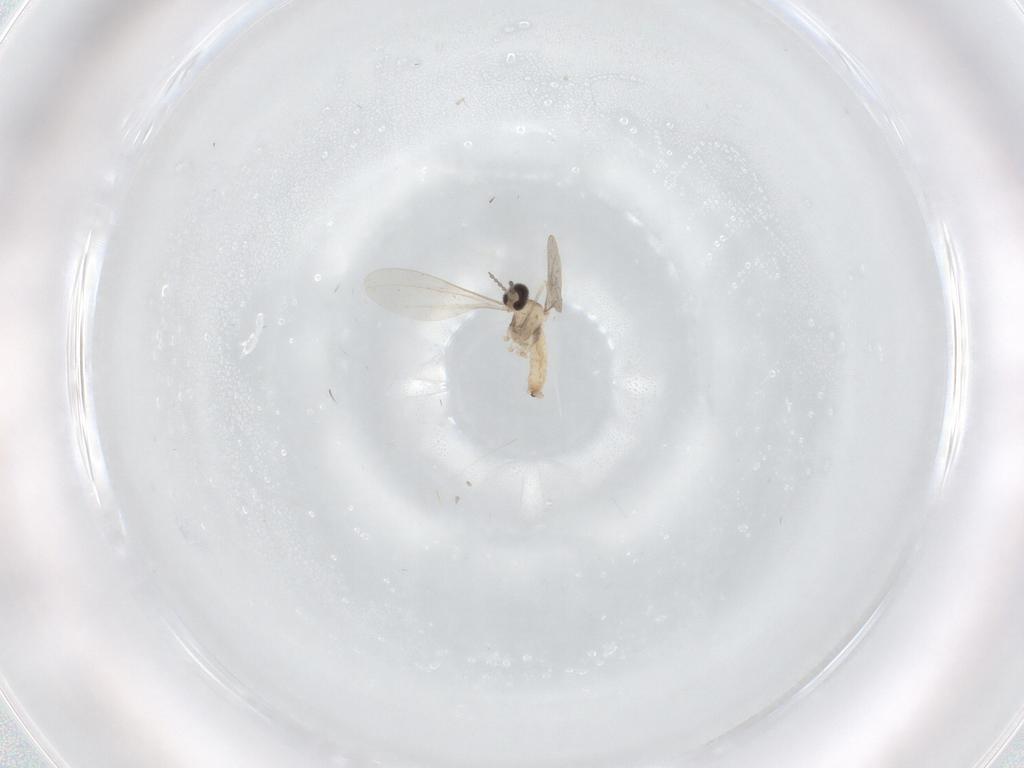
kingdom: Animalia
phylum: Arthropoda
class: Insecta
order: Diptera
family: Cecidomyiidae
